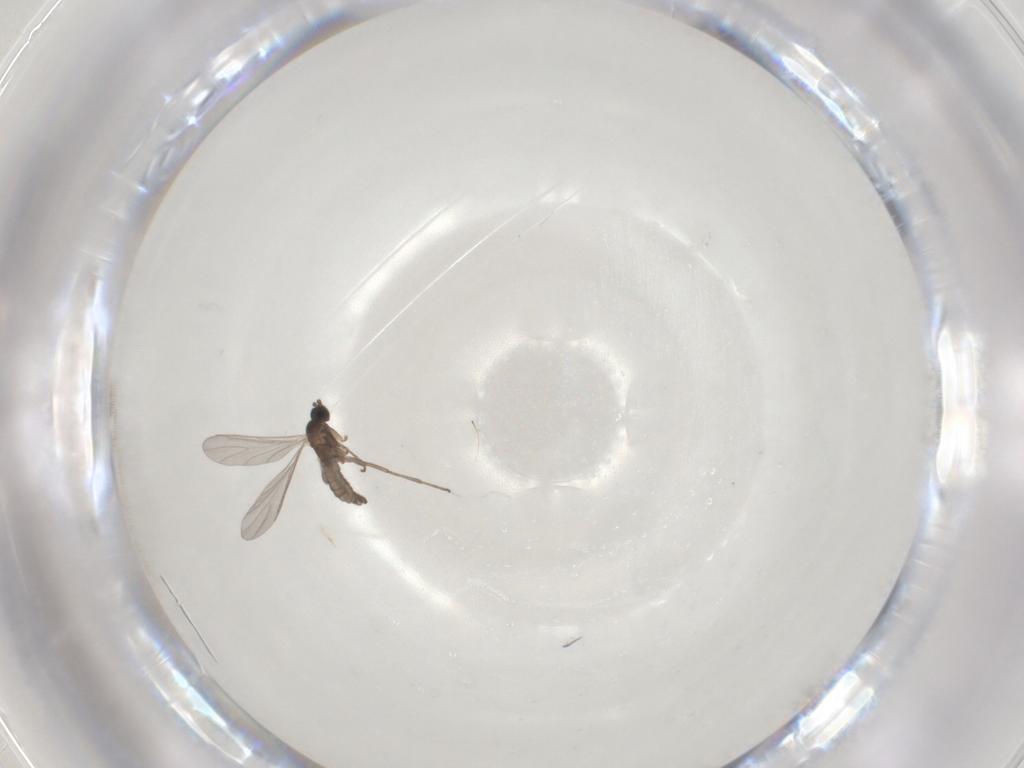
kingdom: Animalia
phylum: Arthropoda
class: Insecta
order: Diptera
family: Sciaridae
